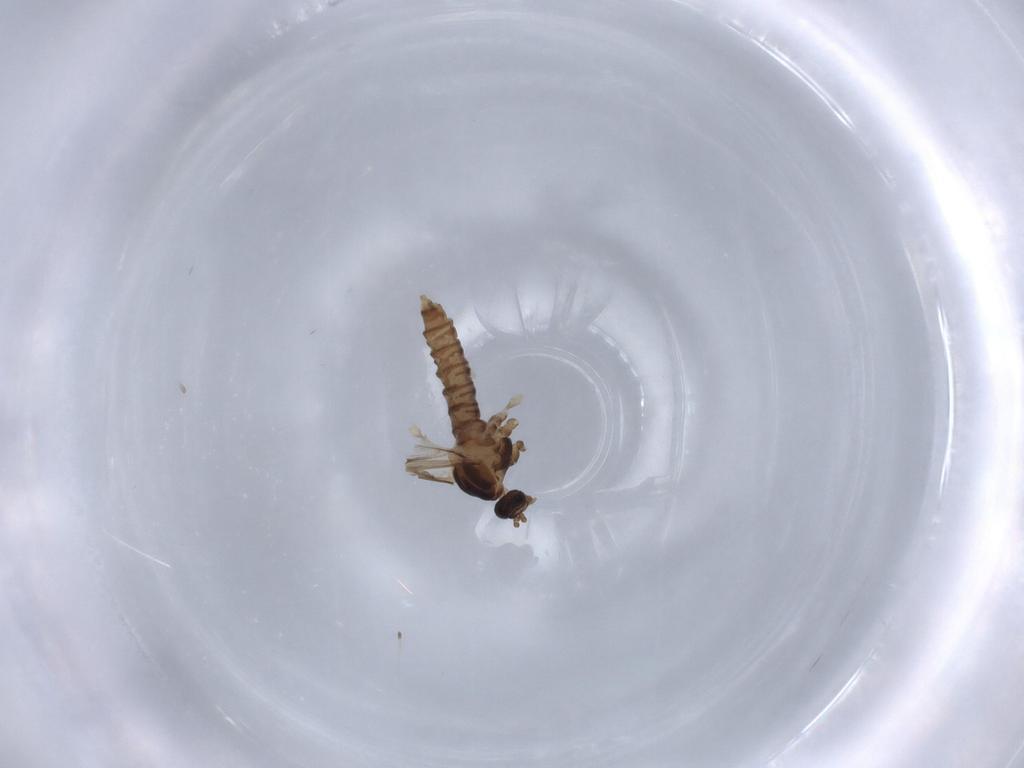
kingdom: Animalia
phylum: Arthropoda
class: Insecta
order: Diptera
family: Cecidomyiidae
